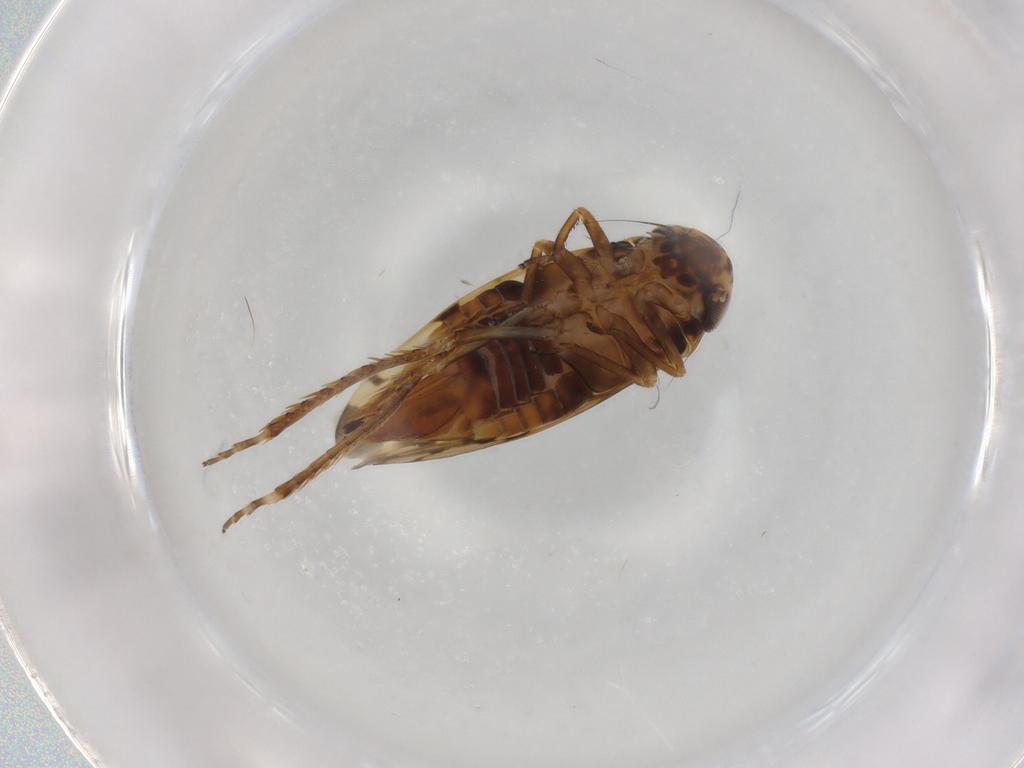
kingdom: Animalia
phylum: Arthropoda
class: Insecta
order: Hemiptera
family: Cicadellidae
